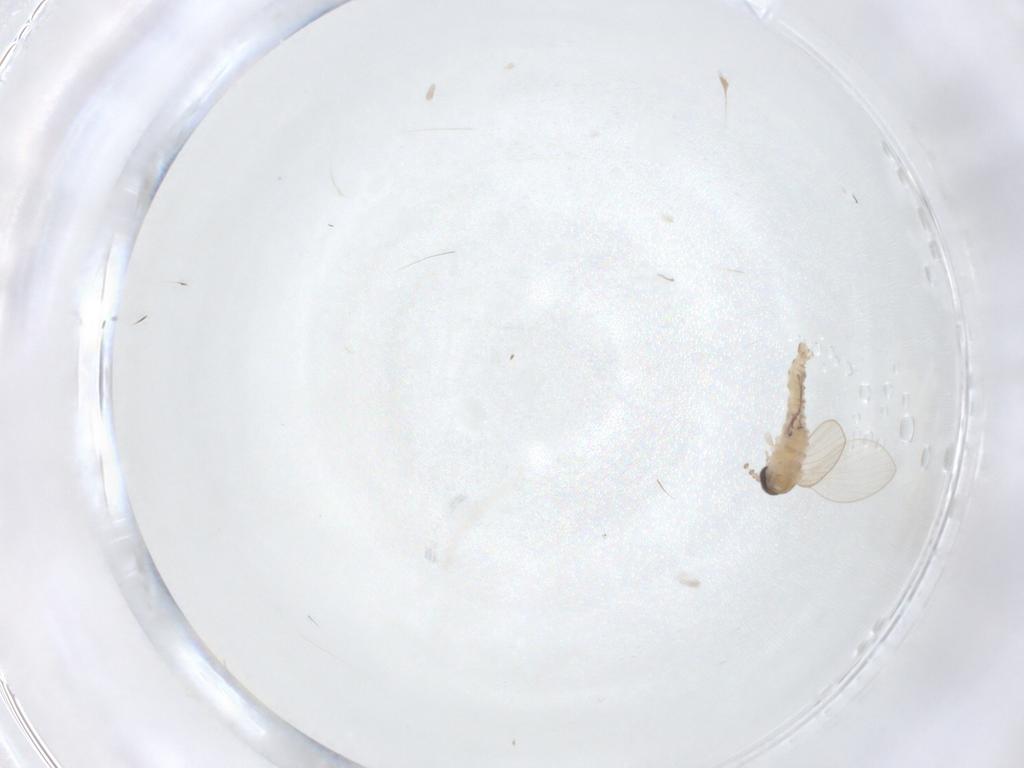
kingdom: Animalia
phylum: Arthropoda
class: Insecta
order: Diptera
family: Psychodidae
